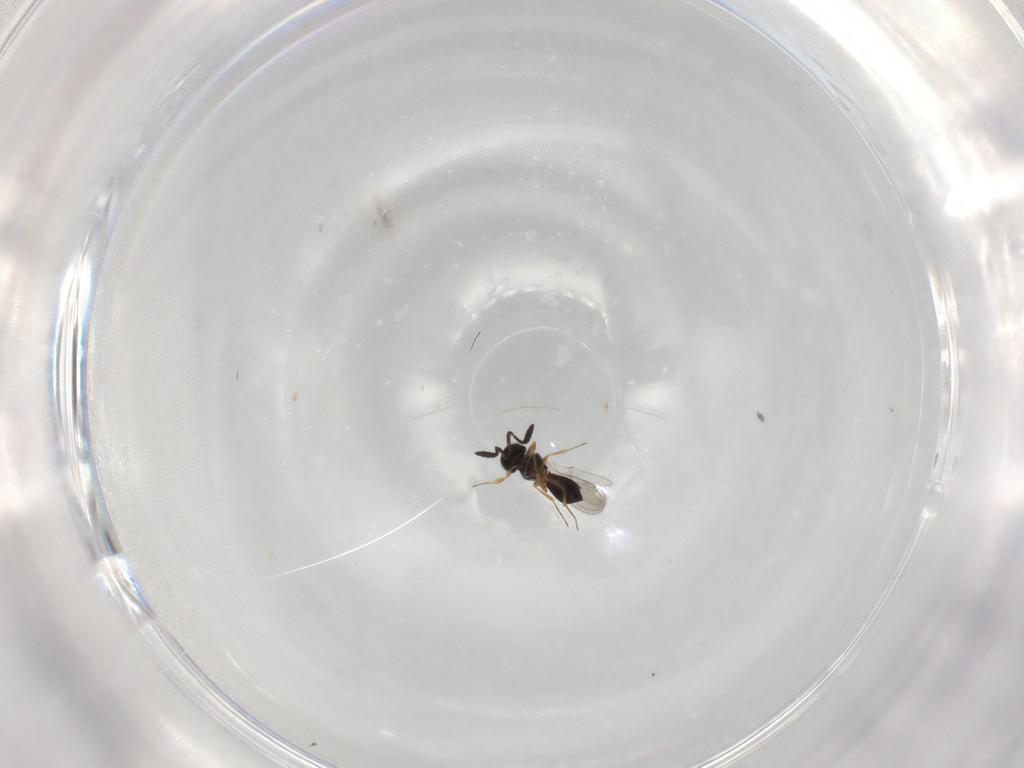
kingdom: Animalia
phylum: Arthropoda
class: Insecta
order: Hymenoptera
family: Scelionidae
